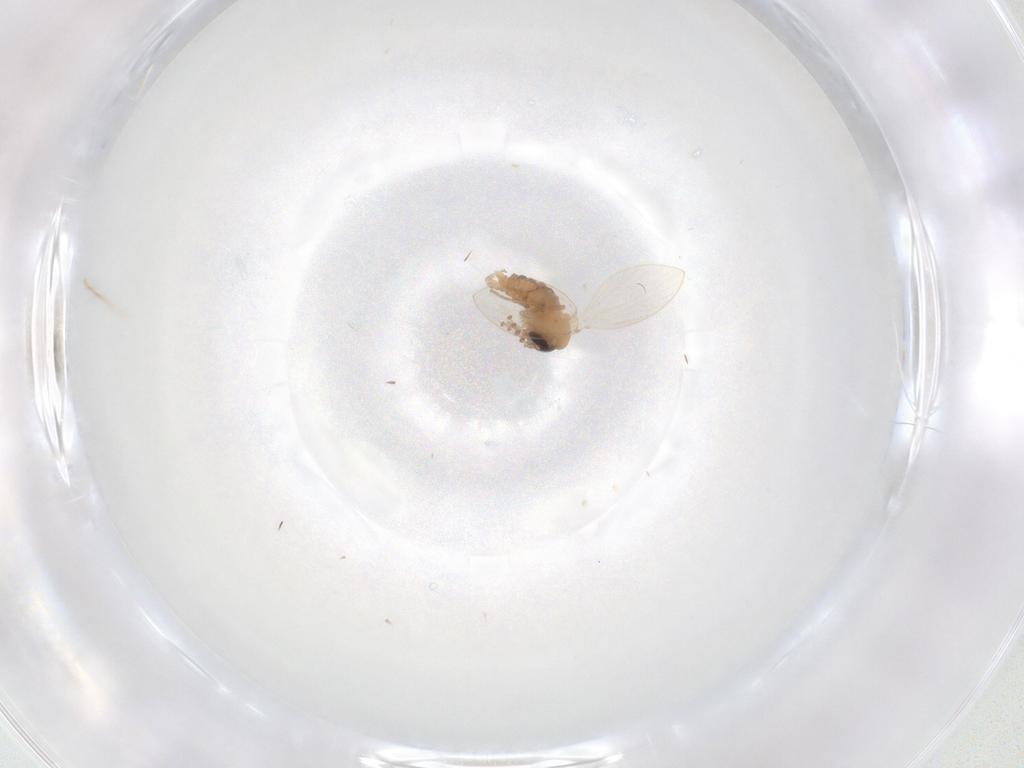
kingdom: Animalia
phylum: Arthropoda
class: Insecta
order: Diptera
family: Psychodidae
